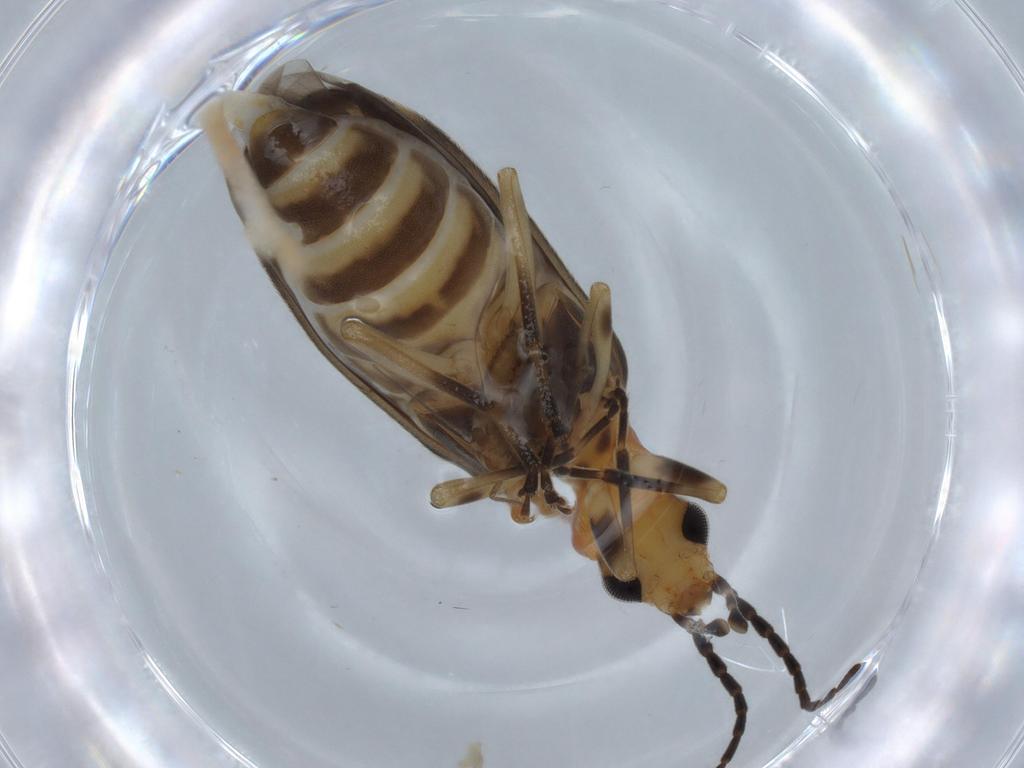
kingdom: Animalia
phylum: Arthropoda
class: Insecta
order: Coleoptera
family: Oedemeridae
